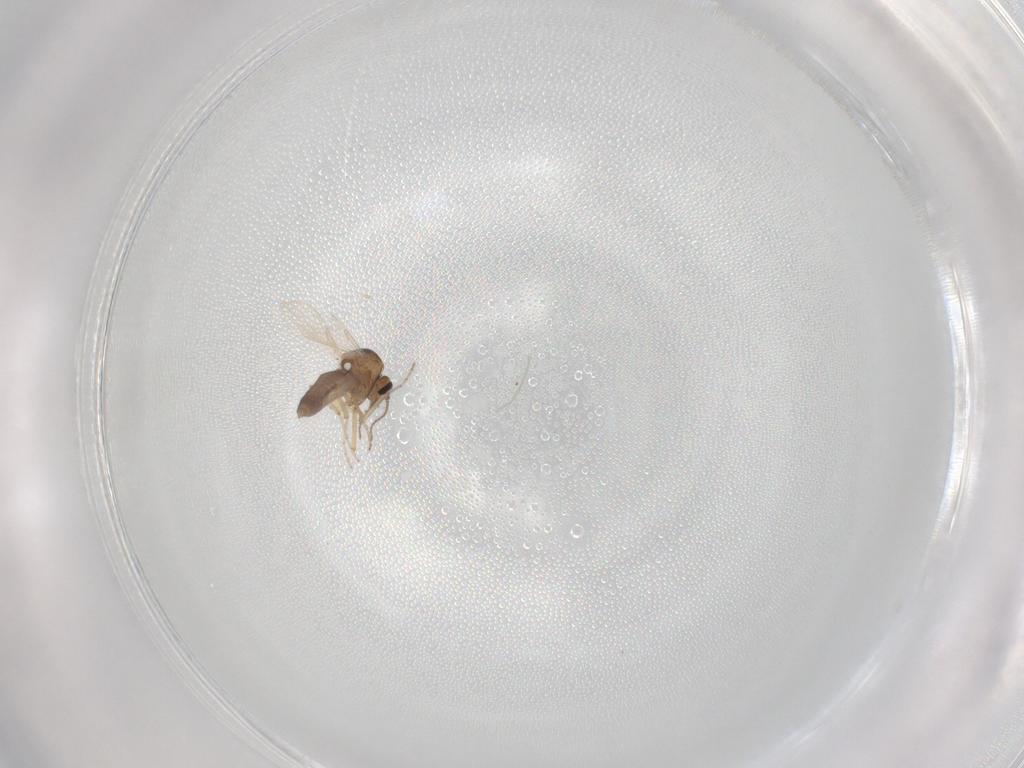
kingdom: Animalia
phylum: Arthropoda
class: Insecta
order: Diptera
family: Ceratopogonidae
